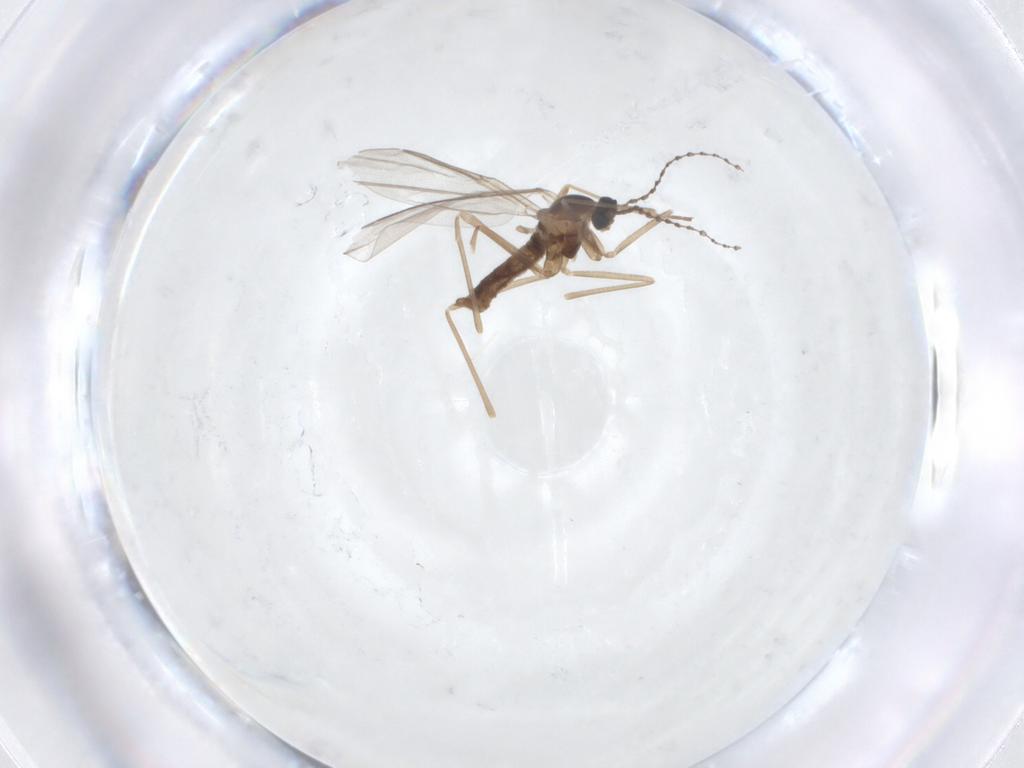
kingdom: Animalia
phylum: Arthropoda
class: Insecta
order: Diptera
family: Cecidomyiidae
